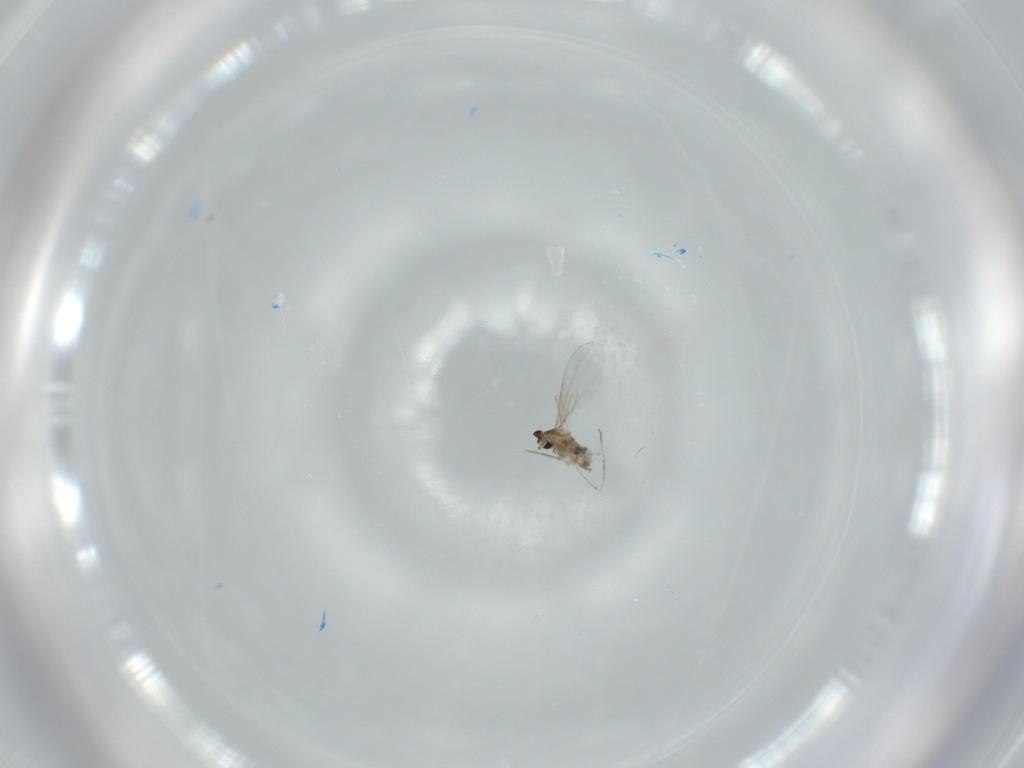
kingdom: Animalia
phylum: Arthropoda
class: Insecta
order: Diptera
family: Cecidomyiidae
